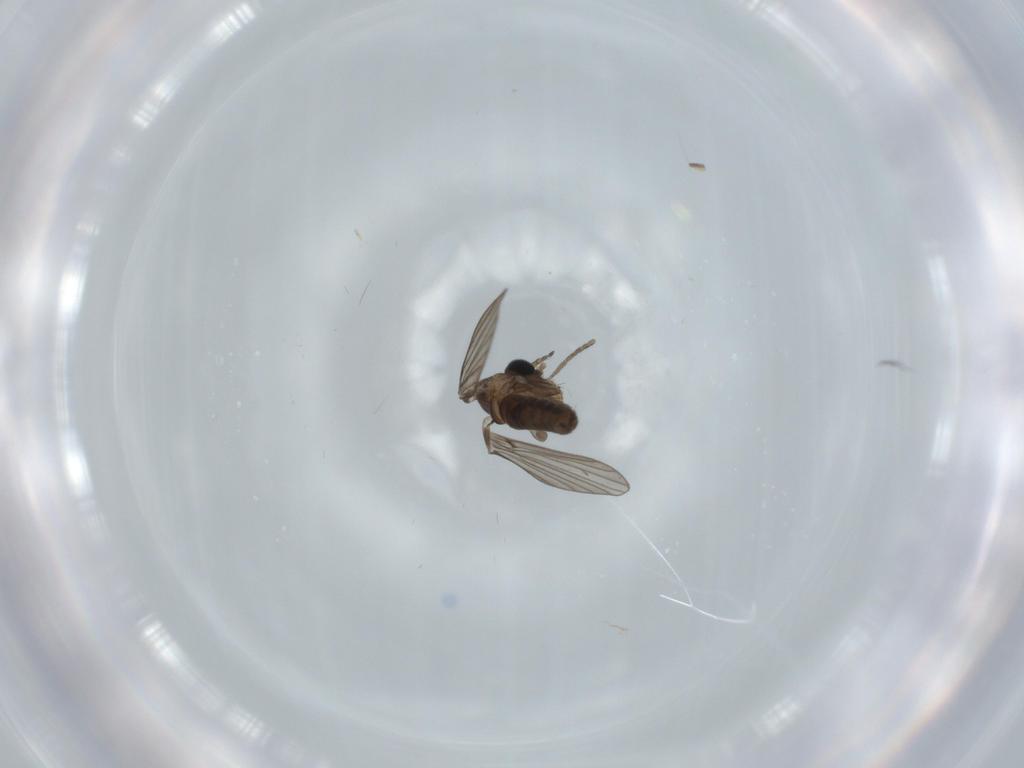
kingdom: Animalia
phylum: Arthropoda
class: Insecta
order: Diptera
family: Psychodidae
